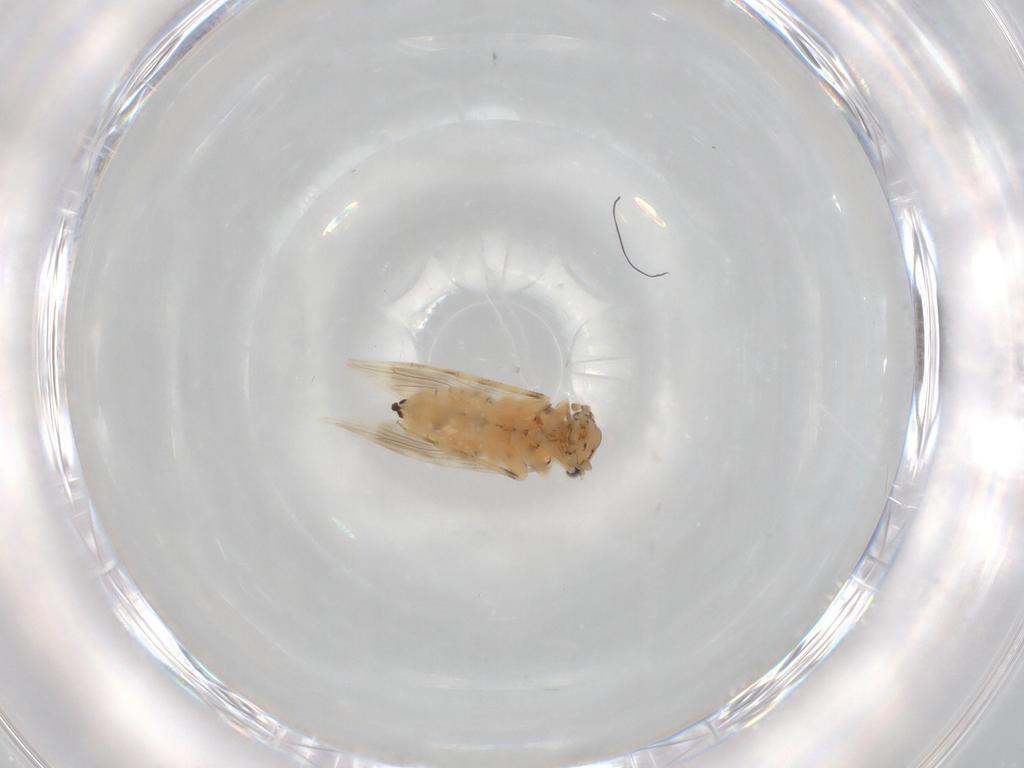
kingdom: Animalia
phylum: Arthropoda
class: Insecta
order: Psocodea
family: Lepidopsocidae
